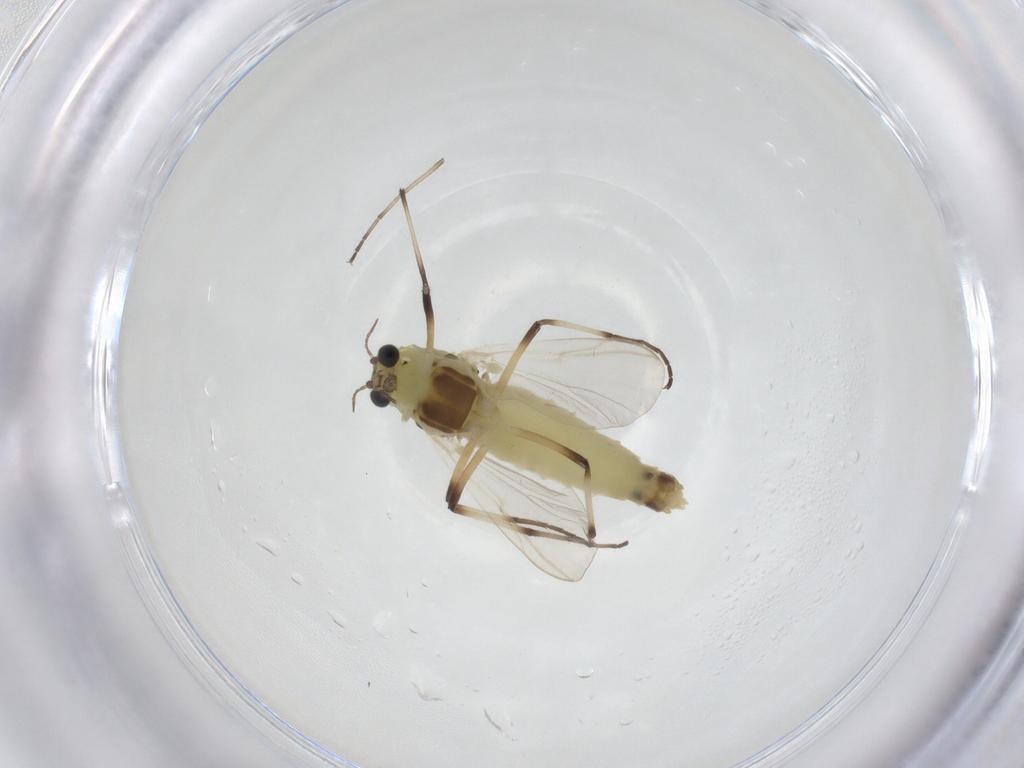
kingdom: Animalia
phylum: Arthropoda
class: Insecta
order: Diptera
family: Chironomidae
